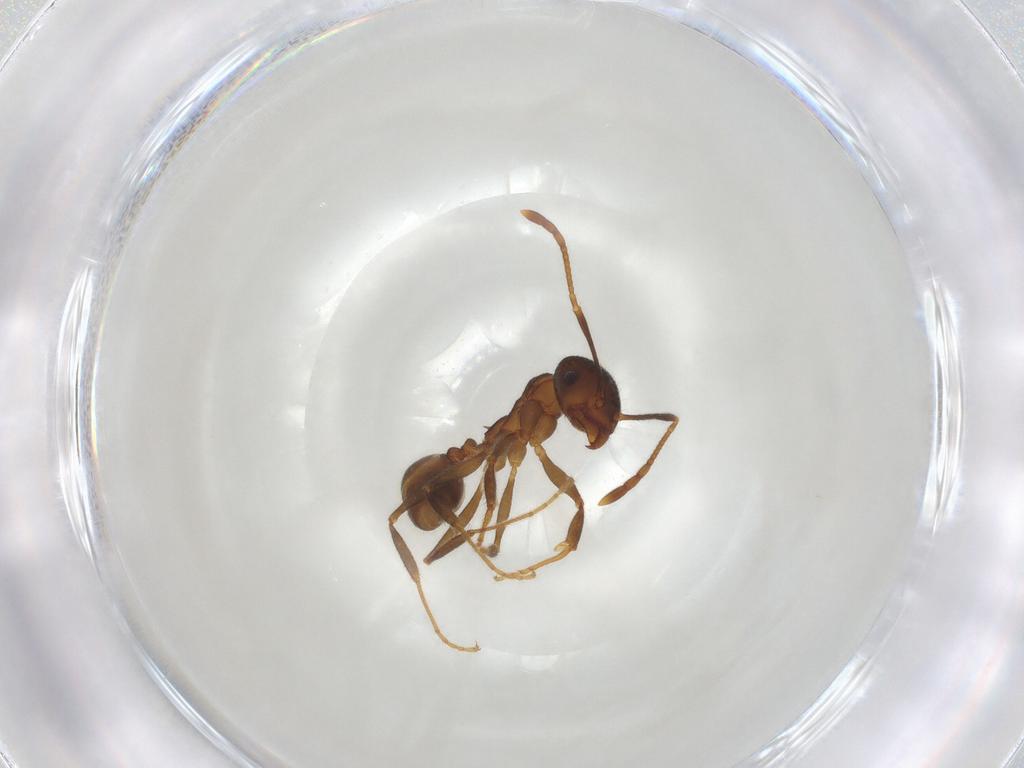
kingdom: Animalia
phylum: Arthropoda
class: Insecta
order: Hymenoptera
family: Formicidae
